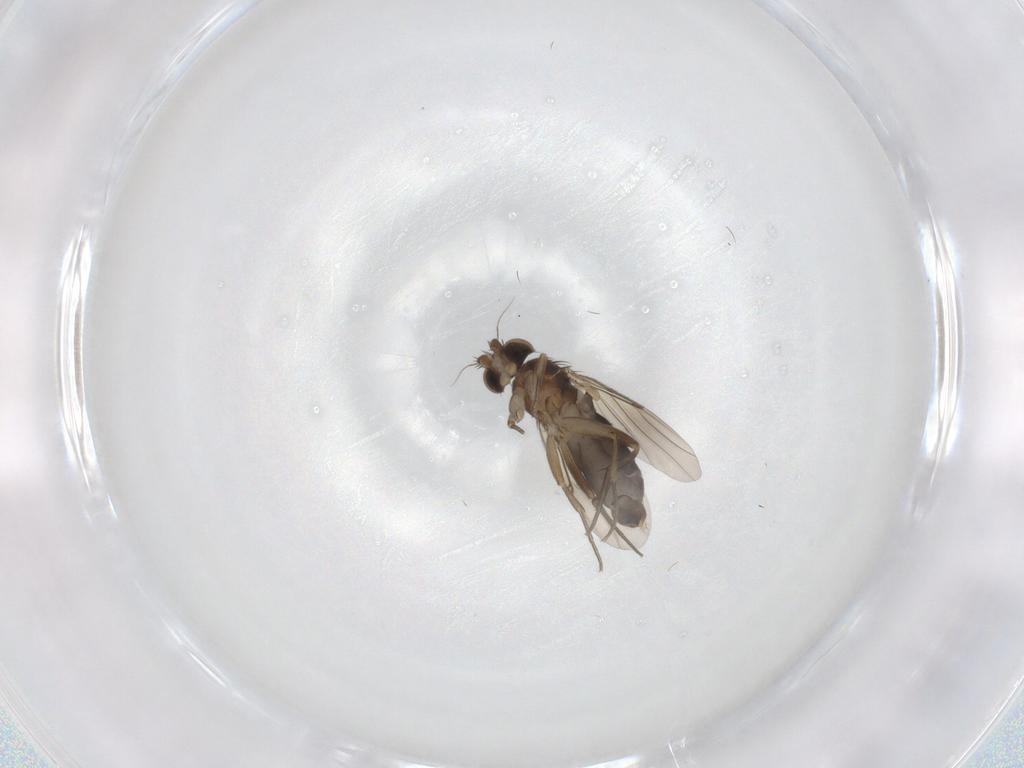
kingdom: Animalia
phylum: Arthropoda
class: Insecta
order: Diptera
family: Phoridae
